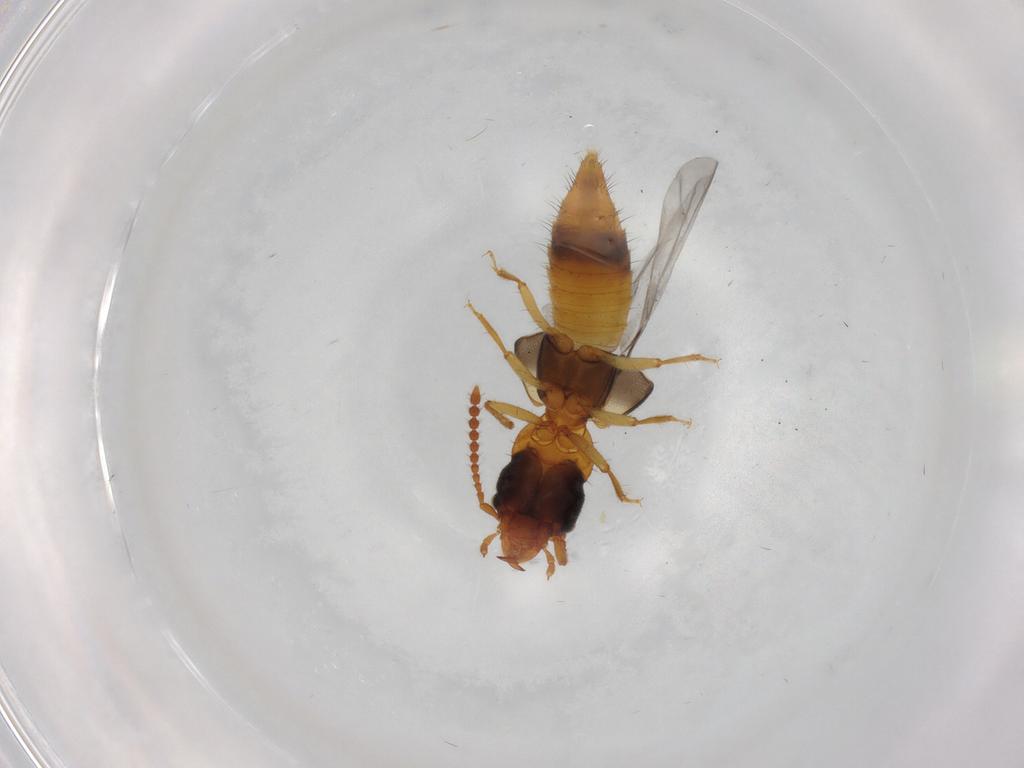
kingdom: Animalia
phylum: Arthropoda
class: Insecta
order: Coleoptera
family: Staphylinidae
